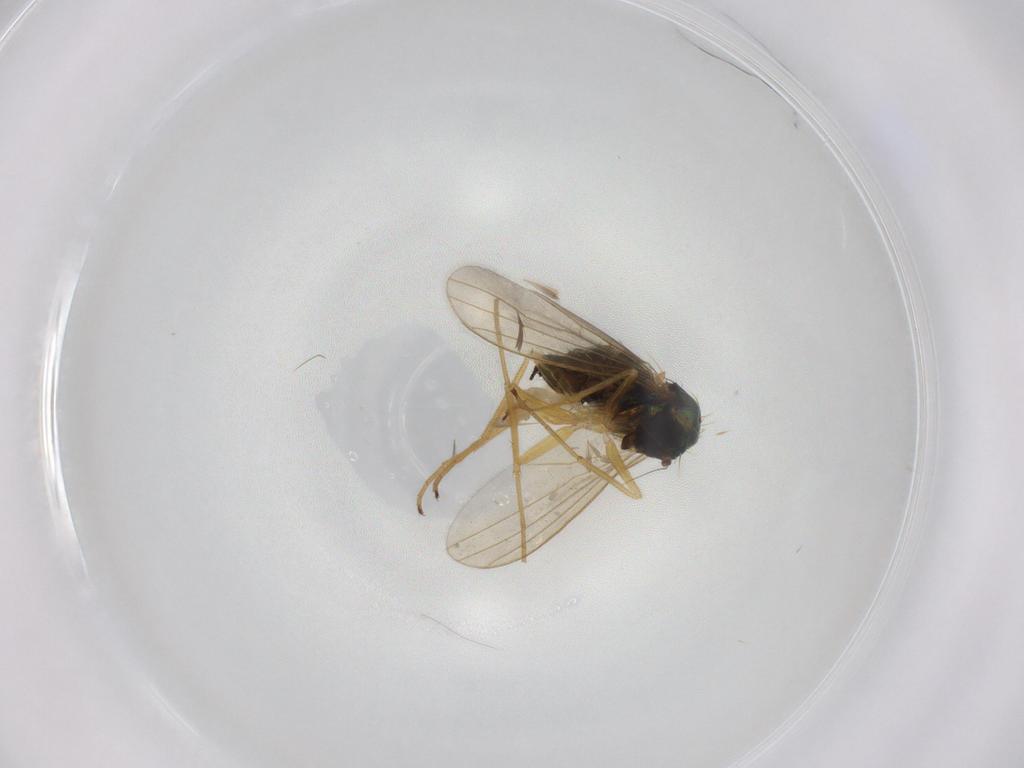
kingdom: Animalia
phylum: Arthropoda
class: Insecta
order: Diptera
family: Dolichopodidae
